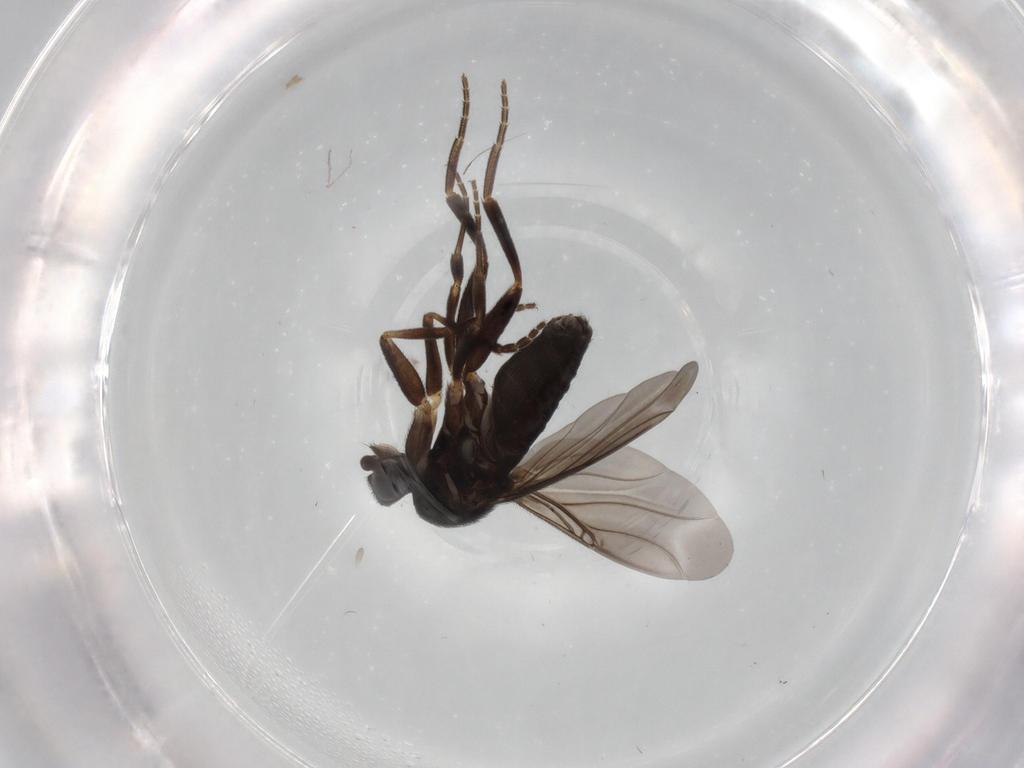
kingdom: Animalia
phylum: Arthropoda
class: Insecta
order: Diptera
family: Phoridae
